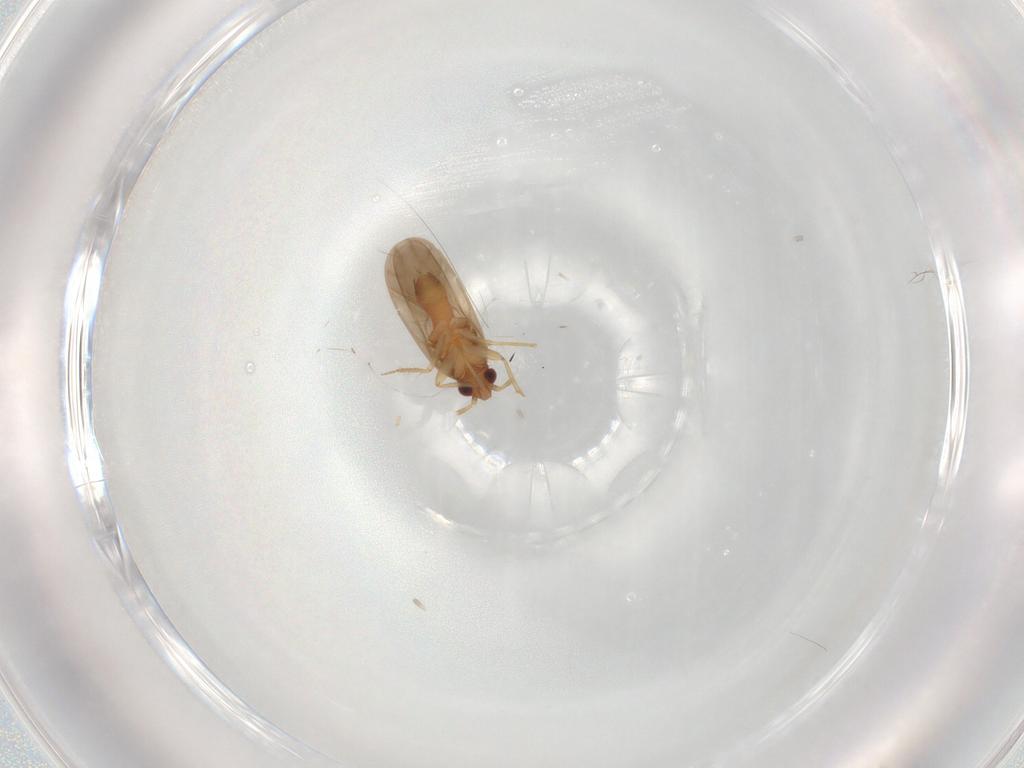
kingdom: Animalia
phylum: Arthropoda
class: Insecta
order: Hemiptera
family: Ceratocombidae
